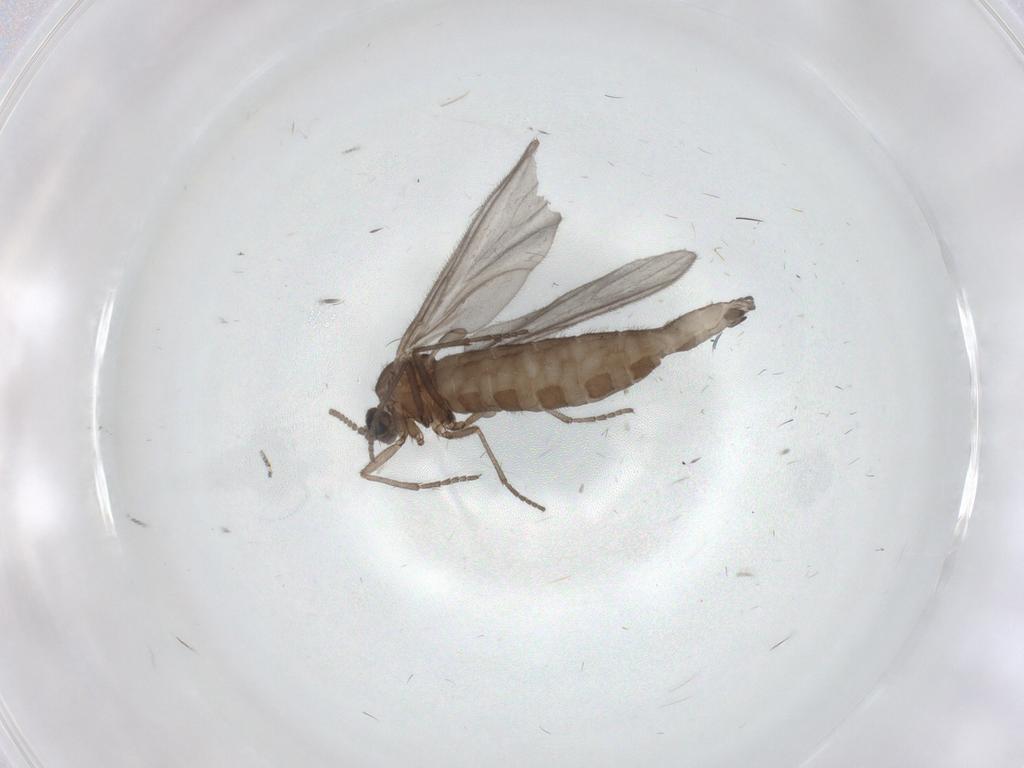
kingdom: Animalia
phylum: Arthropoda
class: Insecta
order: Diptera
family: Sciaridae
